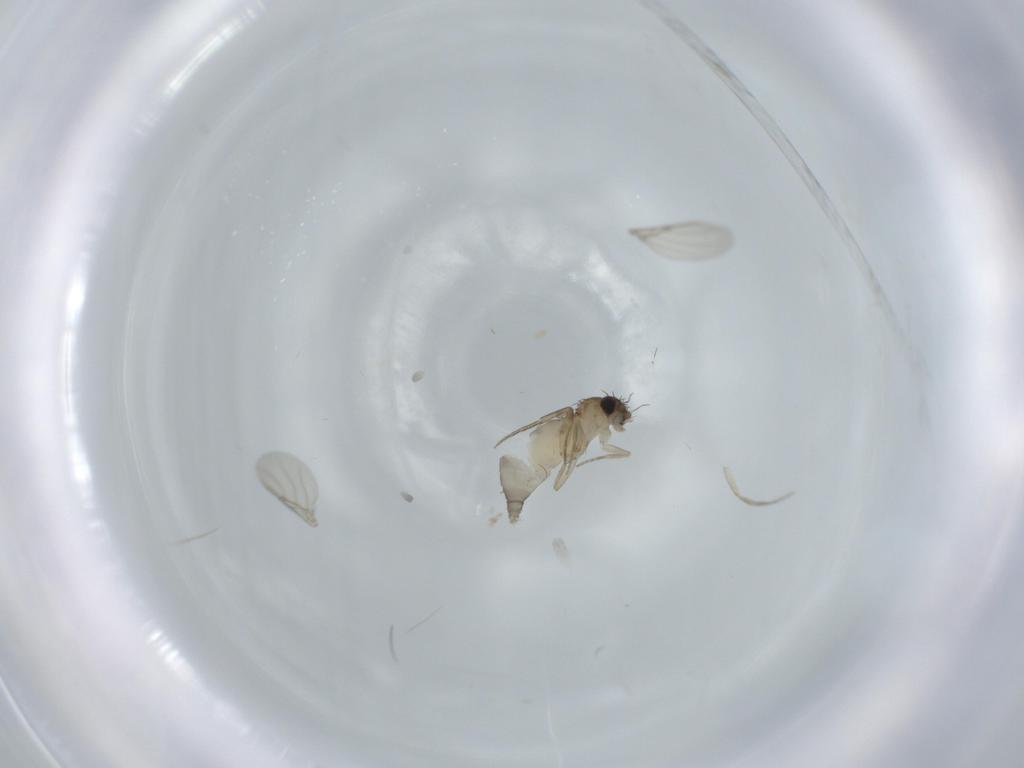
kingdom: Animalia
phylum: Arthropoda
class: Insecta
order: Diptera
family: Phoridae
